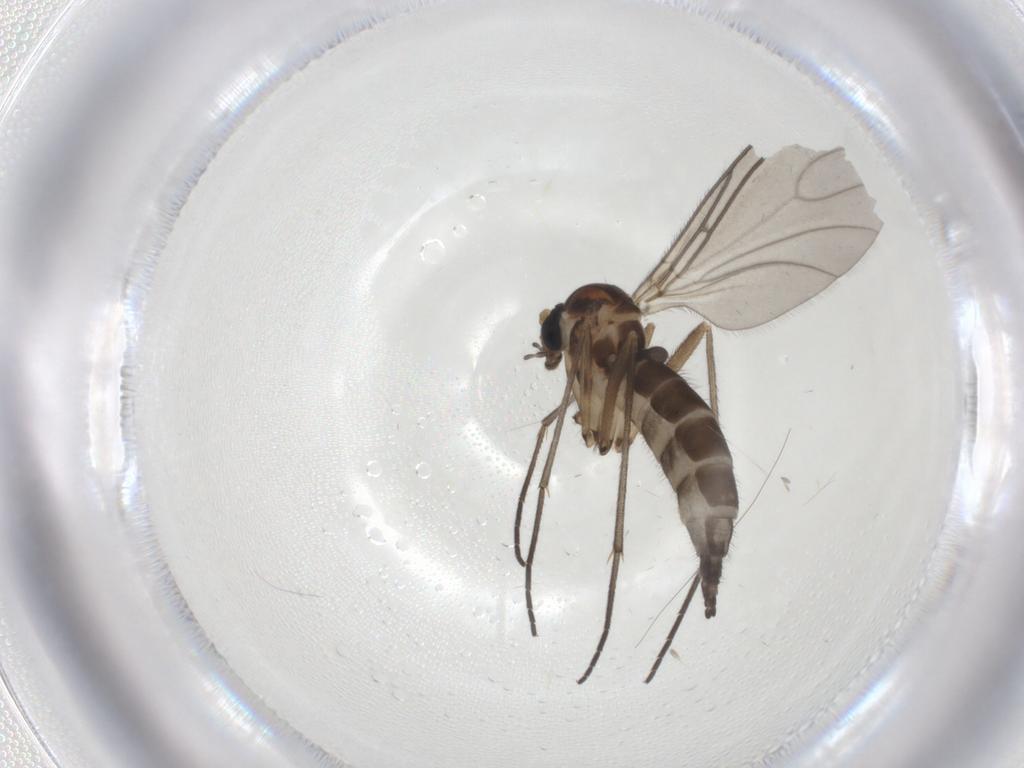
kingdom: Animalia
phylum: Arthropoda
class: Insecta
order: Diptera
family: Sciaridae
